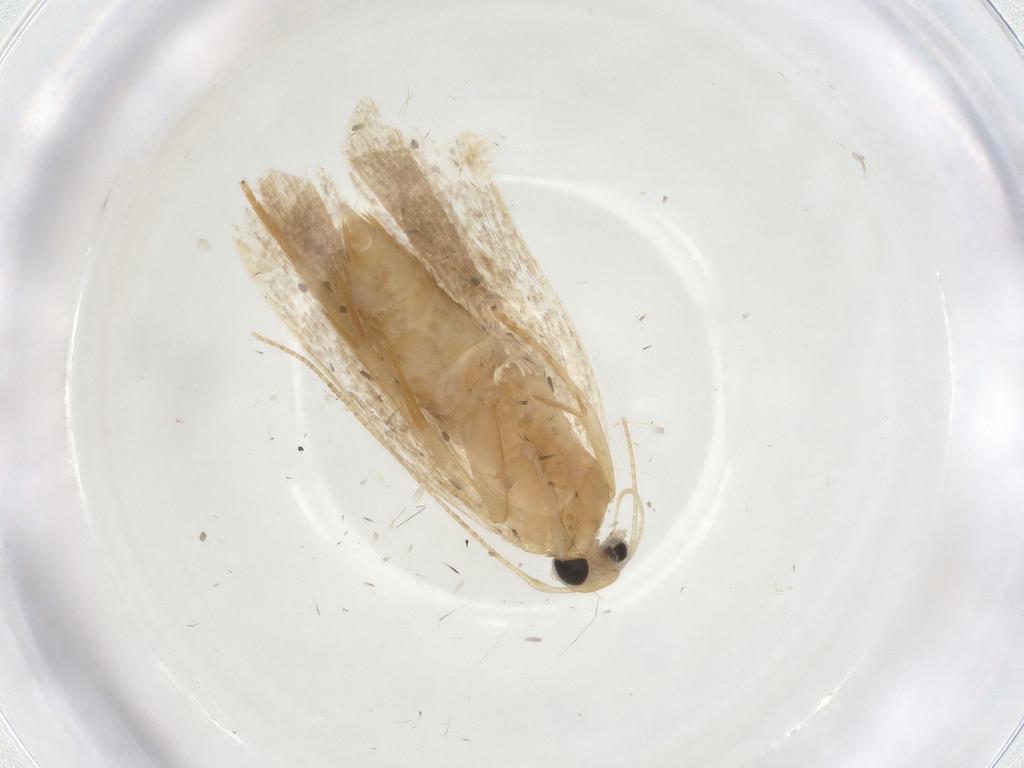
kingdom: Animalia
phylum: Arthropoda
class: Insecta
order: Lepidoptera
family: Gelechiidae
